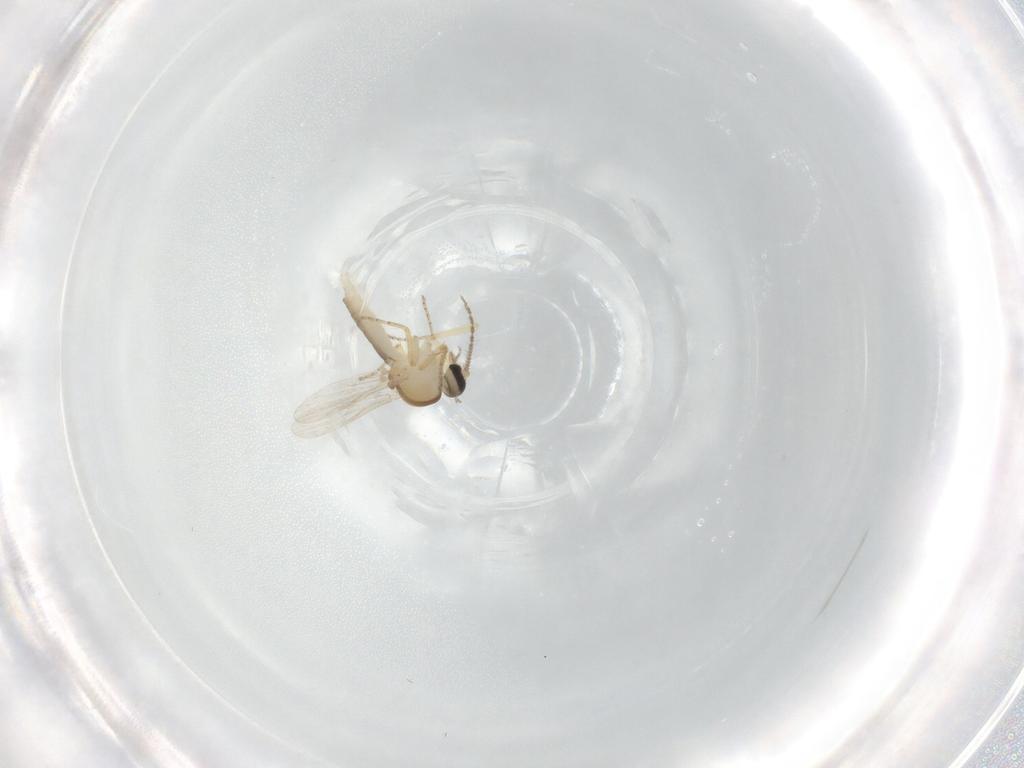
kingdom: Animalia
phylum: Arthropoda
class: Insecta
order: Diptera
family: Ceratopogonidae
